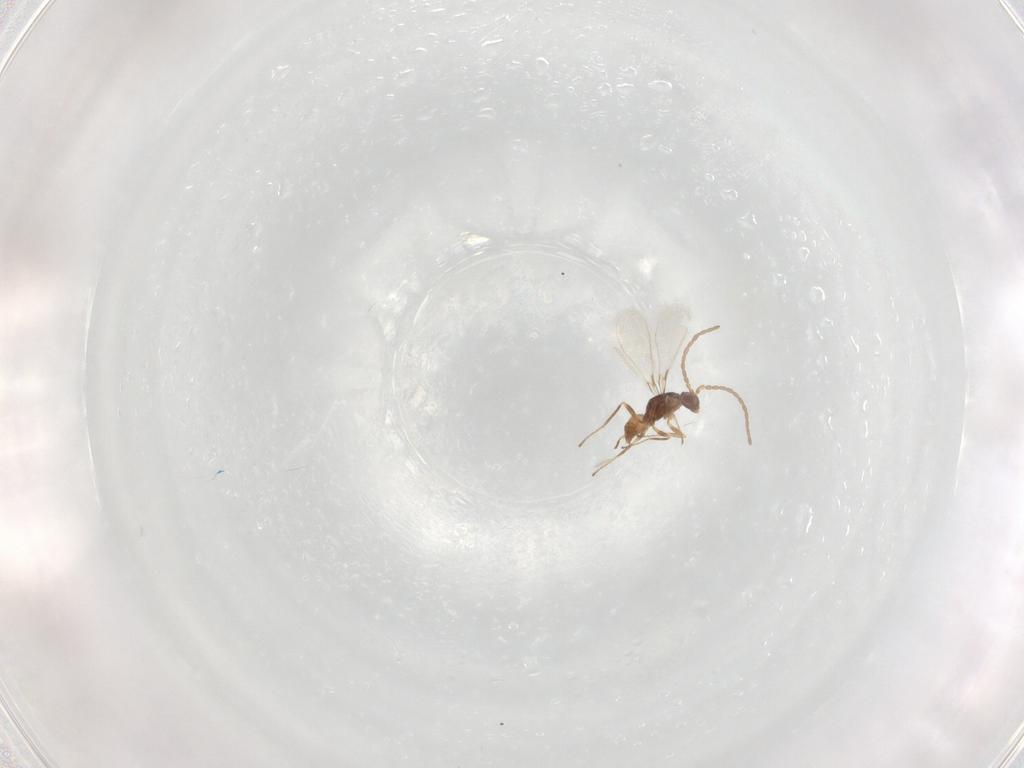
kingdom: Animalia
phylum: Arthropoda
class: Insecta
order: Hymenoptera
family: Mymaridae
